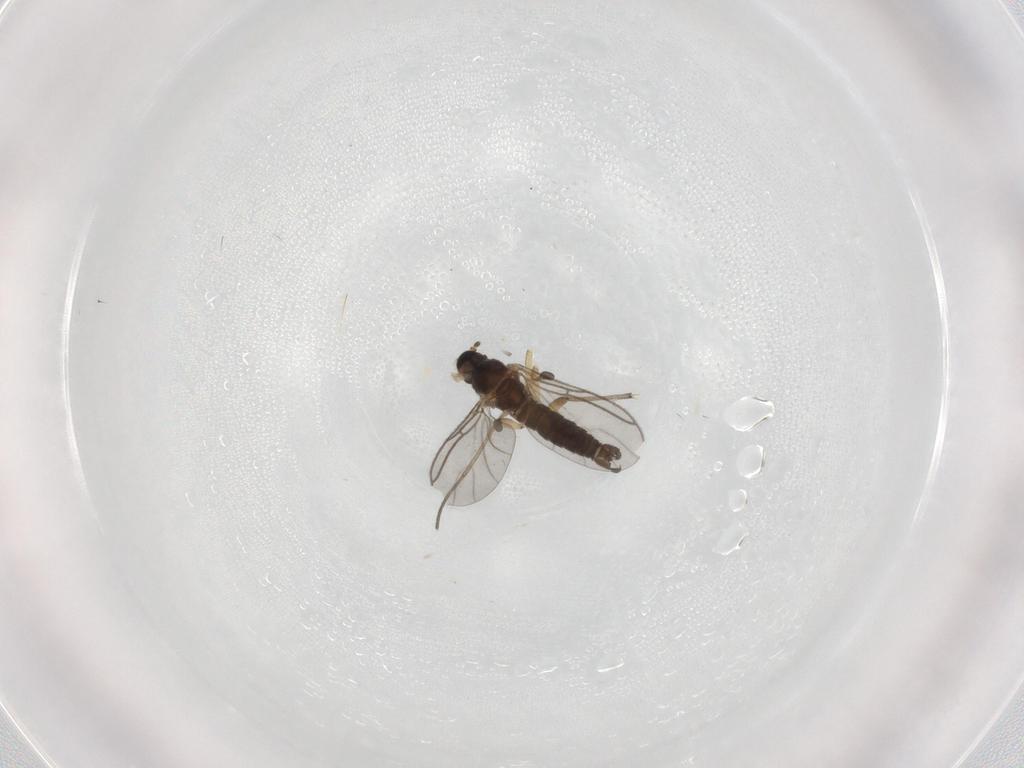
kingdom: Animalia
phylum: Arthropoda
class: Insecta
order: Diptera
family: Sciaridae
